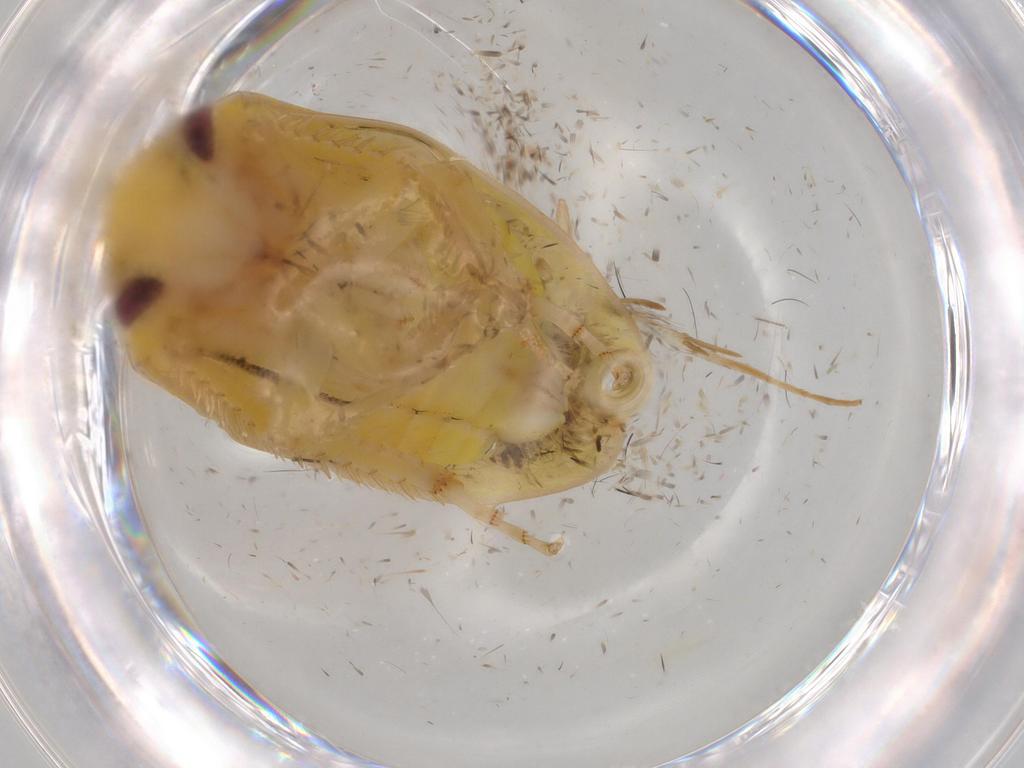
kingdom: Animalia
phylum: Arthropoda
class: Insecta
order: Hemiptera
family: Cicadellidae
